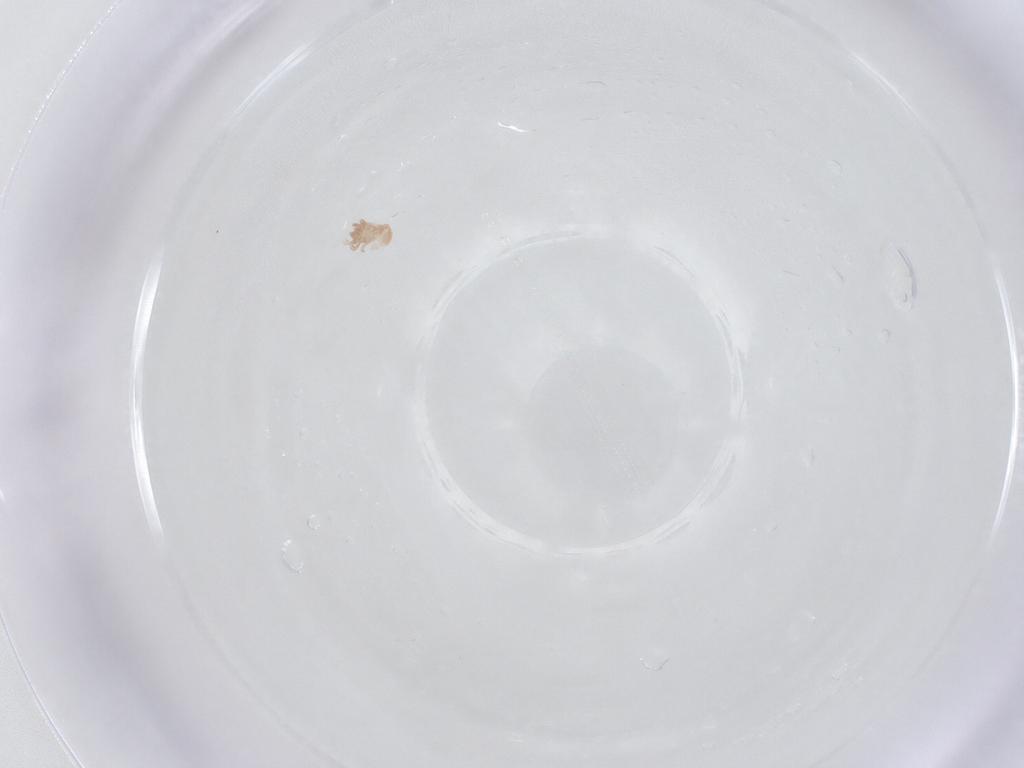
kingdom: Animalia
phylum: Arthropoda
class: Arachnida
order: Mesostigmata
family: Digamasellidae
